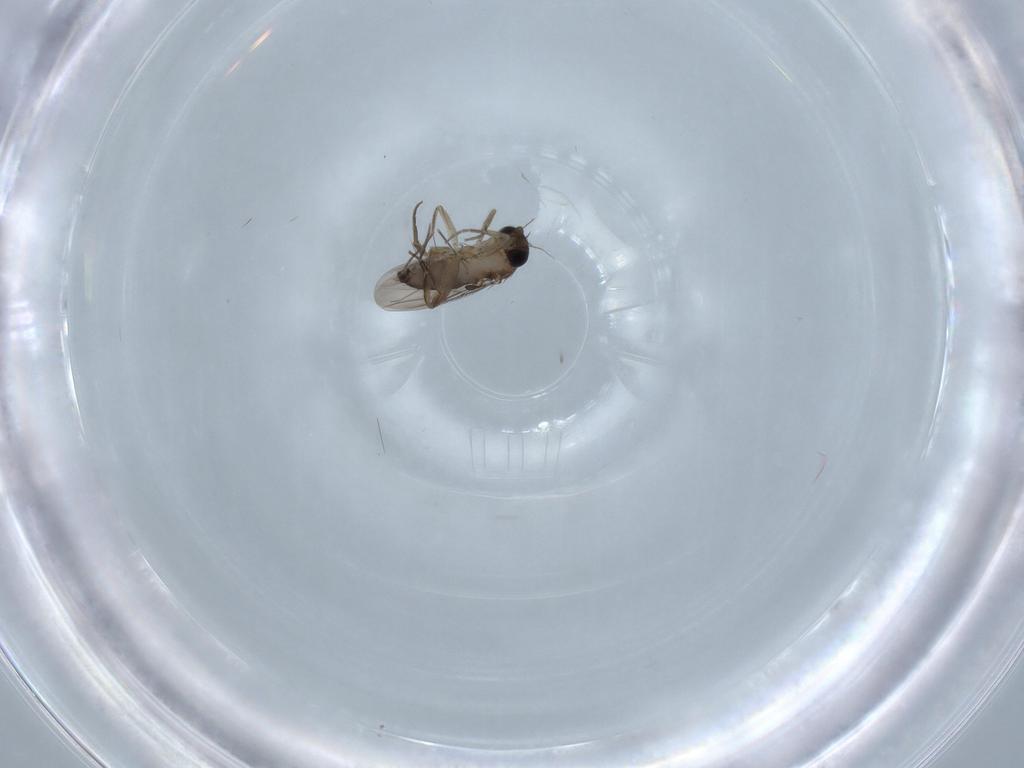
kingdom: Animalia
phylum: Arthropoda
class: Insecta
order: Diptera
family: Phoridae
